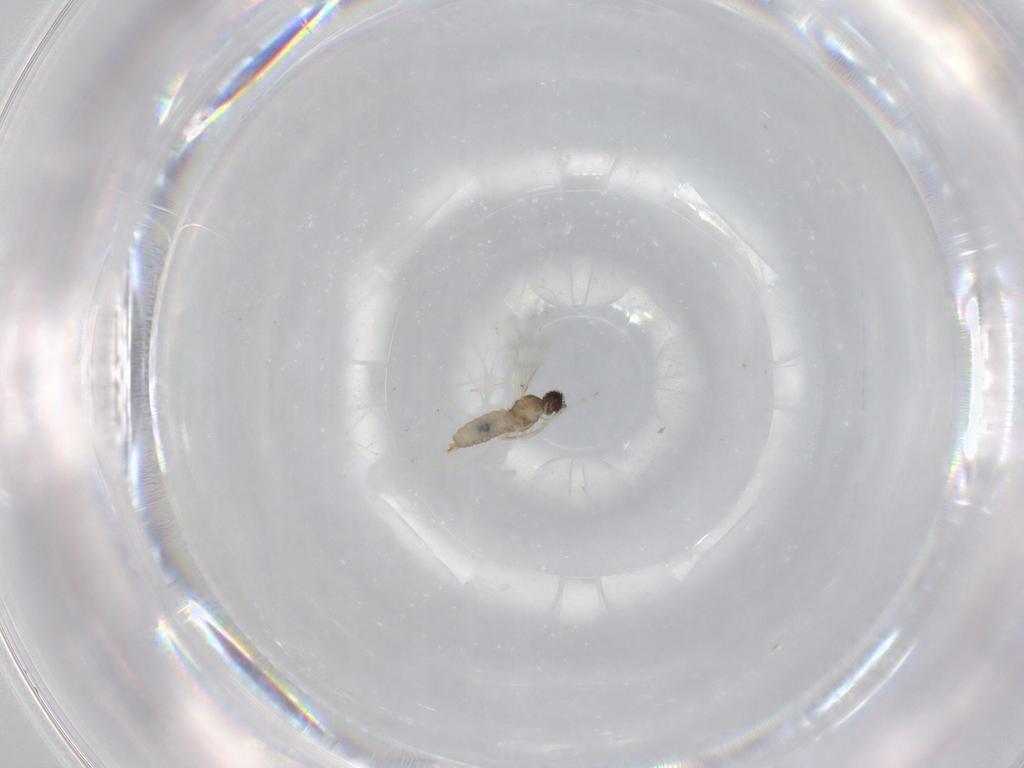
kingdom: Animalia
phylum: Arthropoda
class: Insecta
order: Diptera
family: Cecidomyiidae
